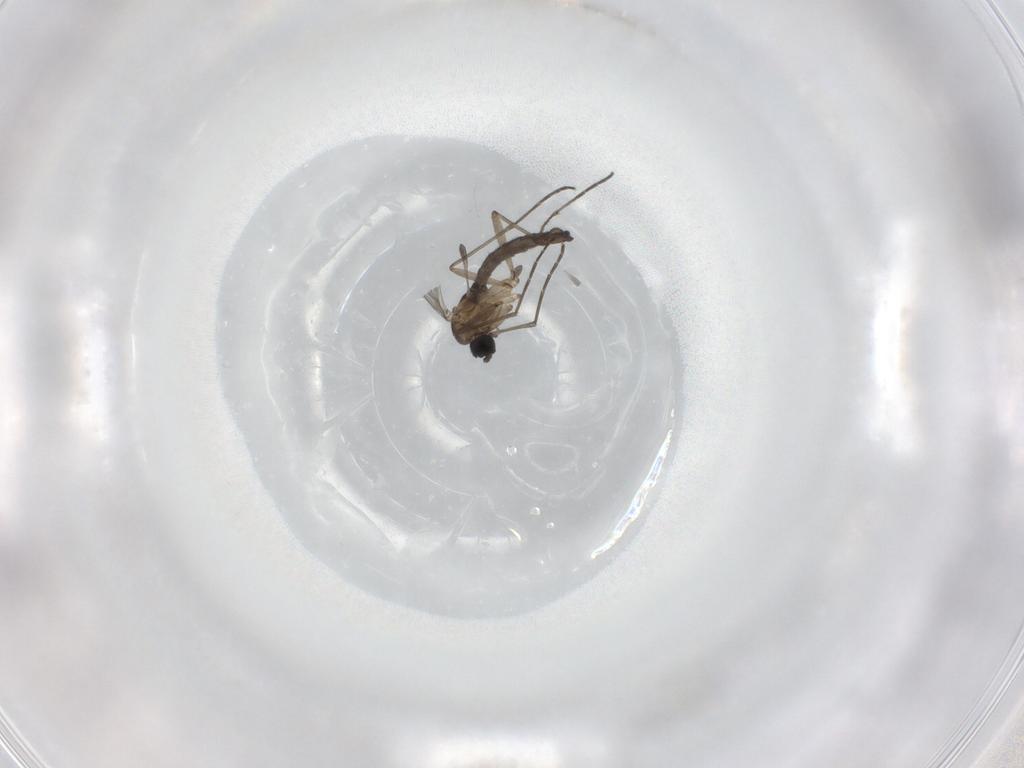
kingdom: Animalia
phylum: Arthropoda
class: Insecta
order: Diptera
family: Sciaridae
